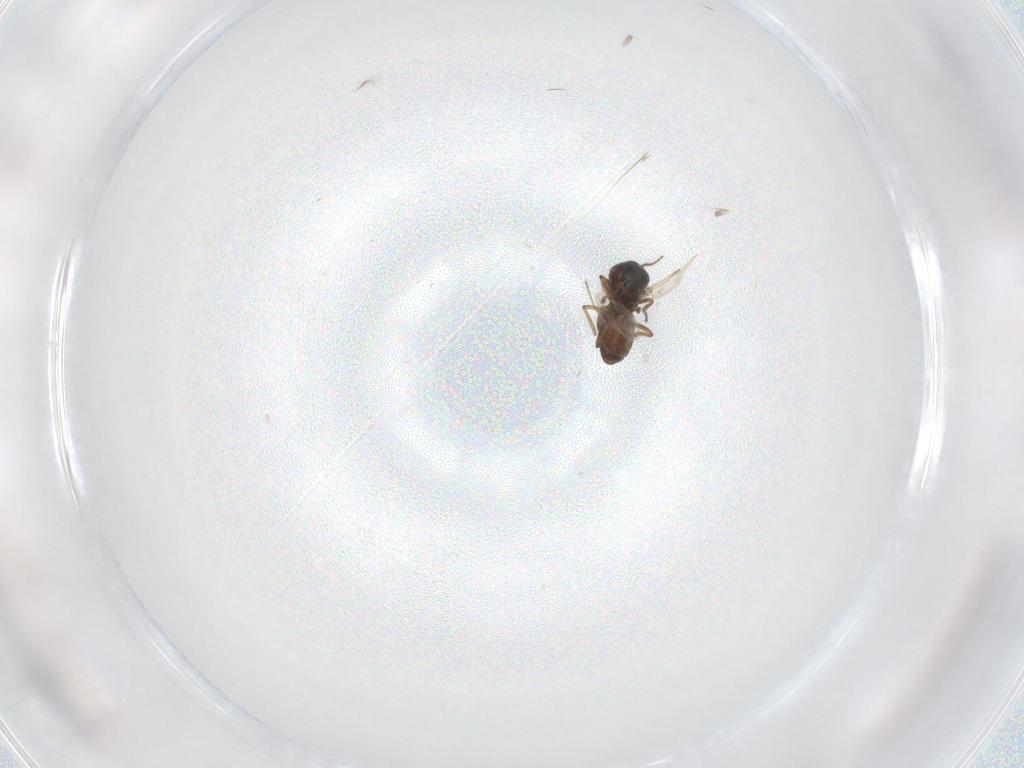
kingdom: Animalia
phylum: Arthropoda
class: Insecta
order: Diptera
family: Ceratopogonidae
